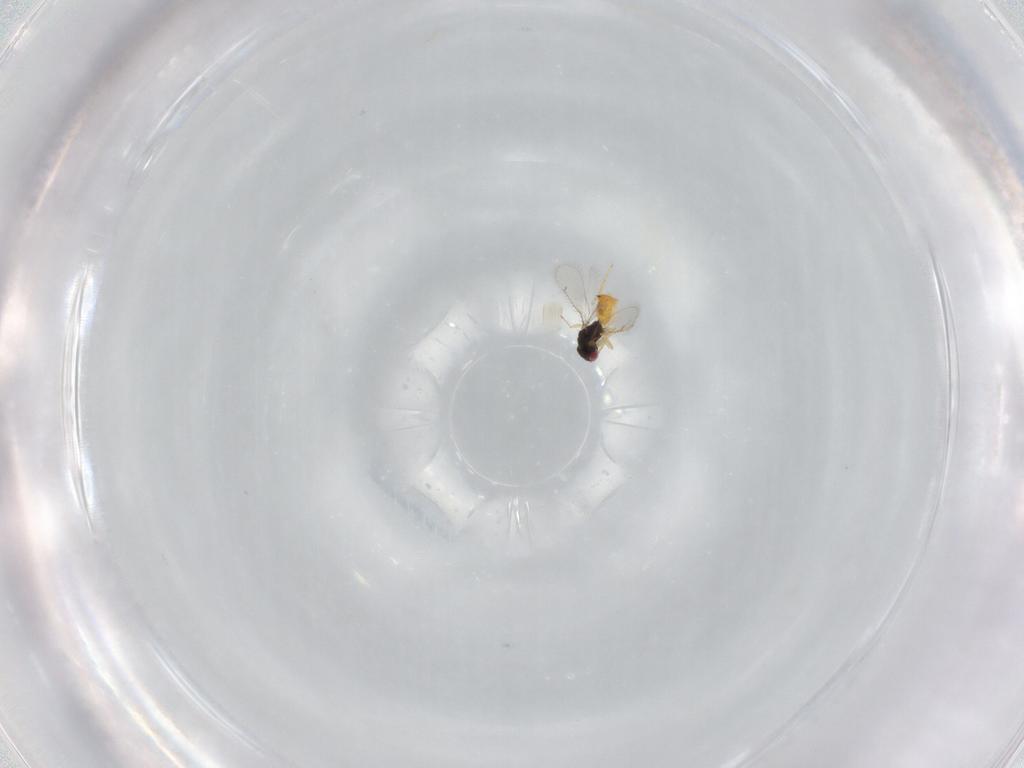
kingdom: Animalia
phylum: Arthropoda
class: Insecta
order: Hymenoptera
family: Eulophidae
